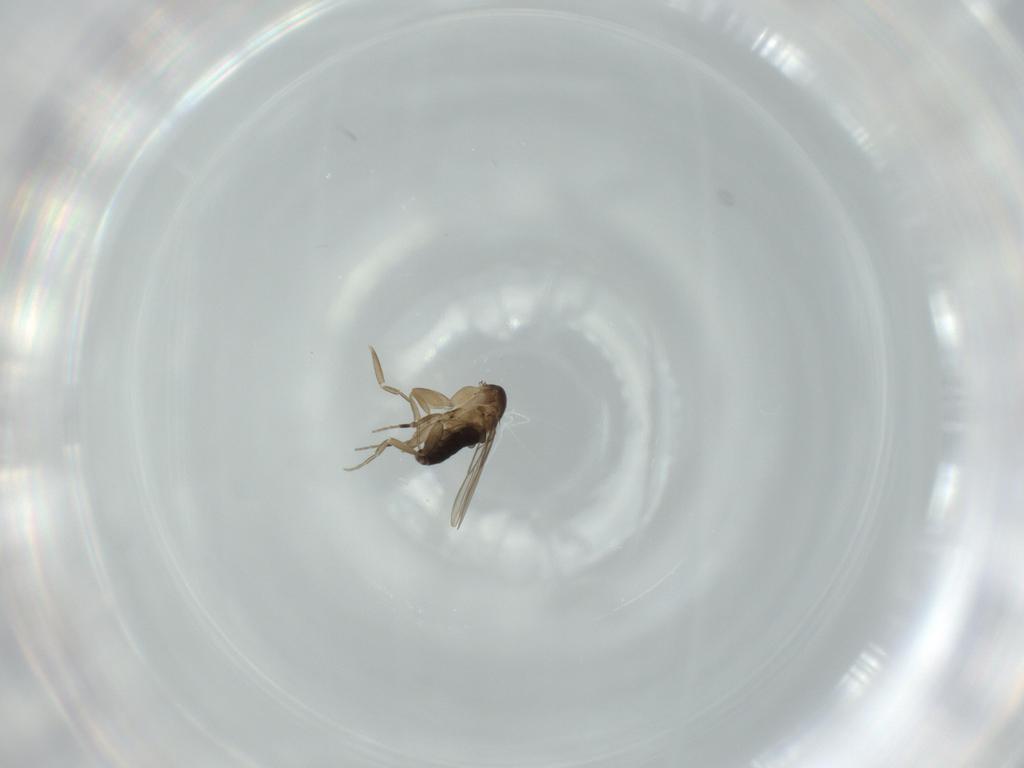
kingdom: Animalia
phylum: Arthropoda
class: Insecta
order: Diptera
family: Phoridae
